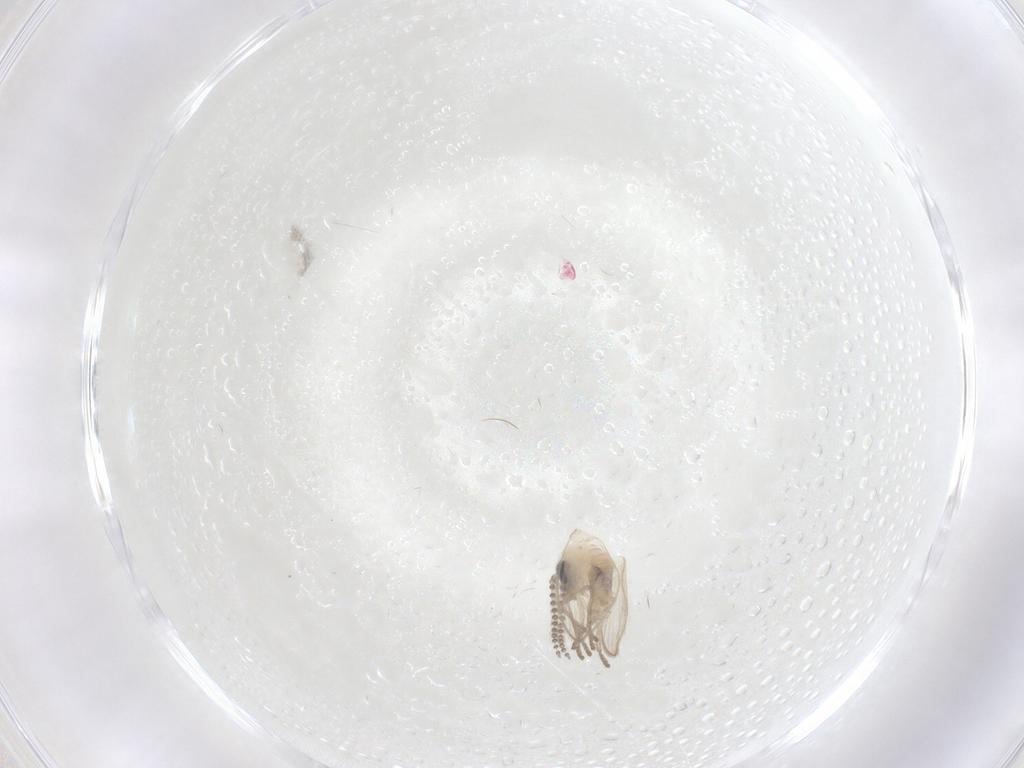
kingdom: Animalia
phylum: Arthropoda
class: Insecta
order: Diptera
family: Psychodidae
